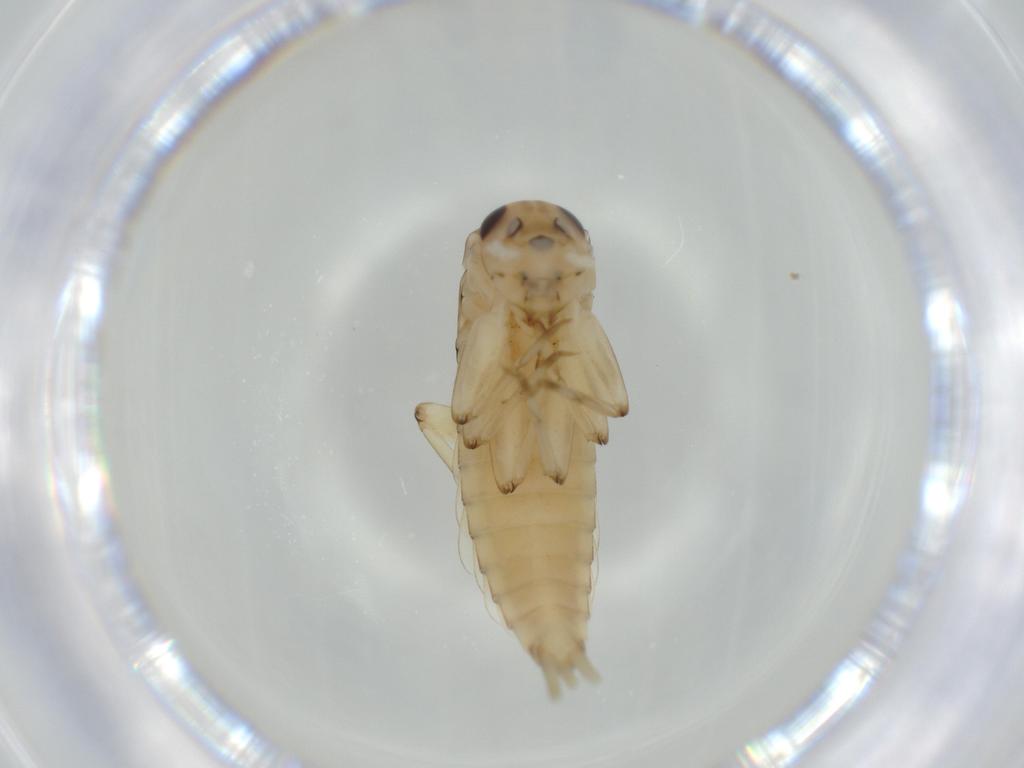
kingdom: Animalia
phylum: Arthropoda
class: Insecta
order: Ephemeroptera
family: Baetidae
